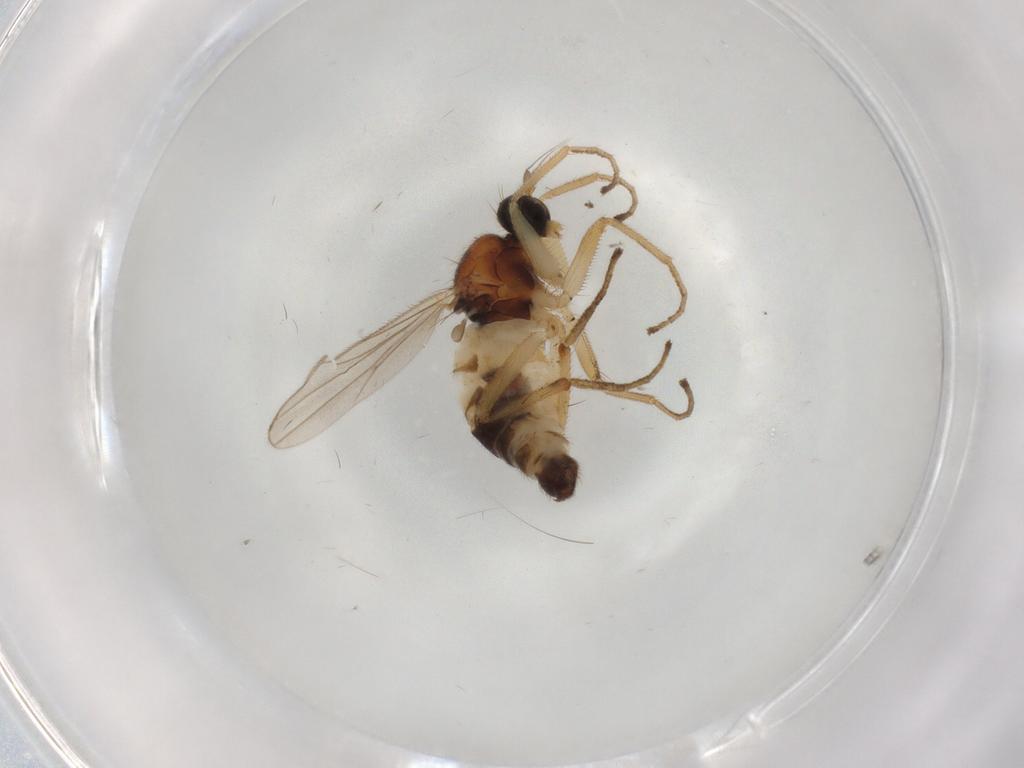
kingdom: Animalia
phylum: Arthropoda
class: Insecta
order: Diptera
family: Hybotidae
